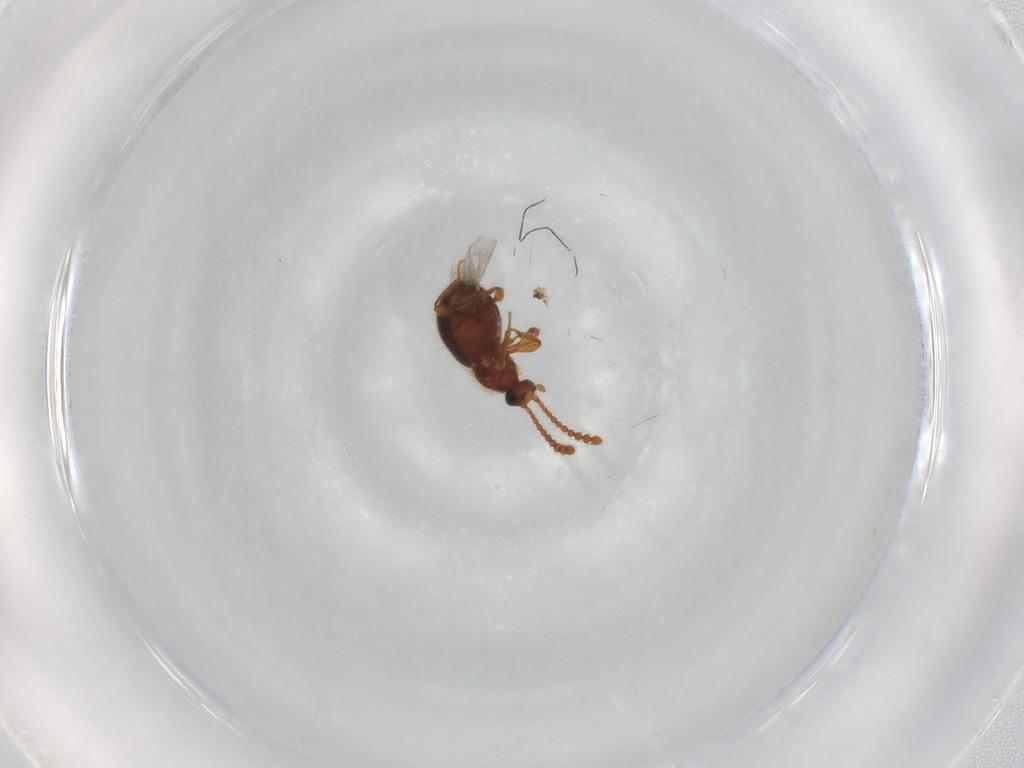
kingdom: Animalia
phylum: Arthropoda
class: Insecta
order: Coleoptera
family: Staphylinidae
